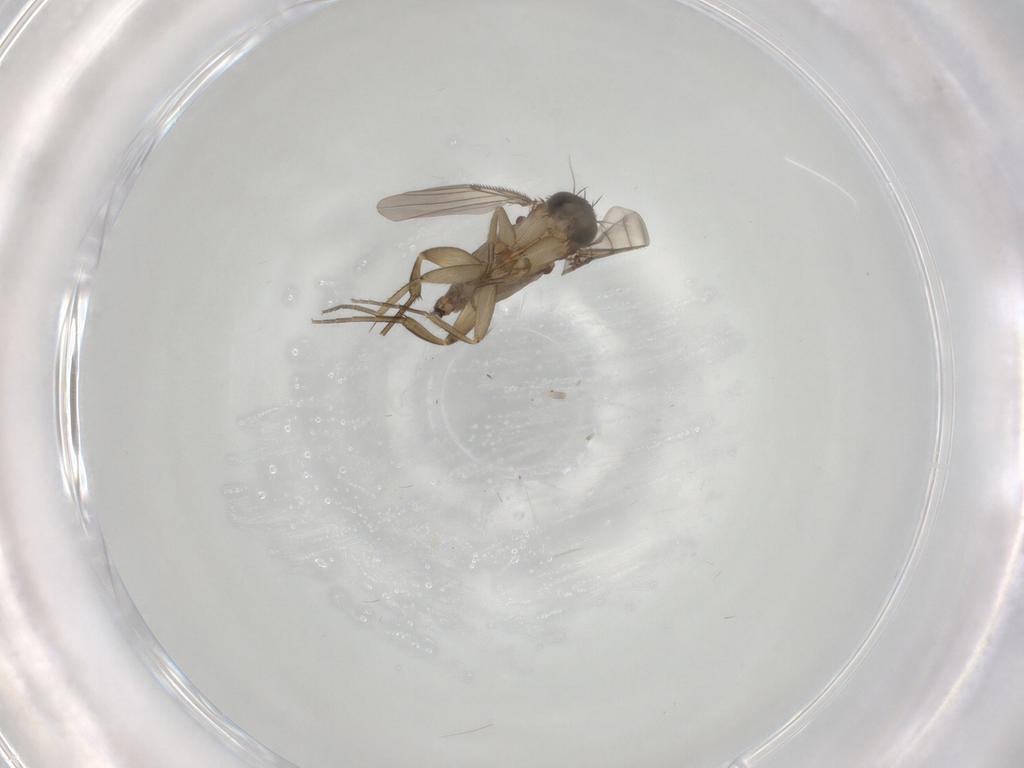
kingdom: Animalia
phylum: Arthropoda
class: Insecta
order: Diptera
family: Phoridae
